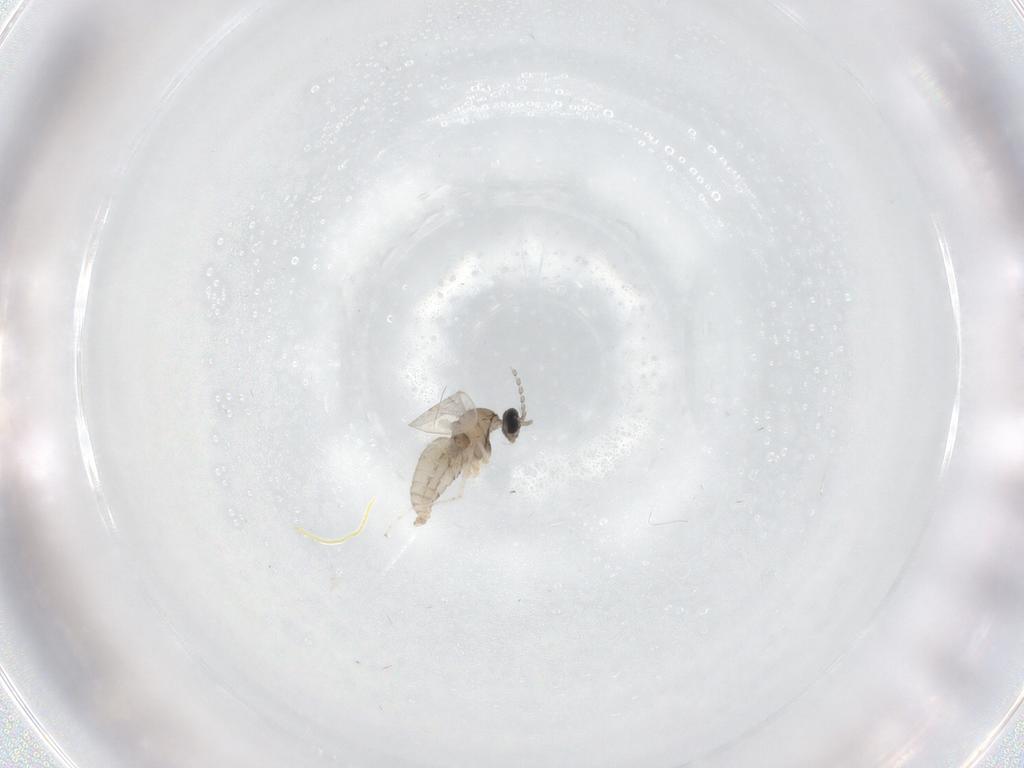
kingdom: Animalia
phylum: Arthropoda
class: Insecta
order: Diptera
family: Cecidomyiidae
